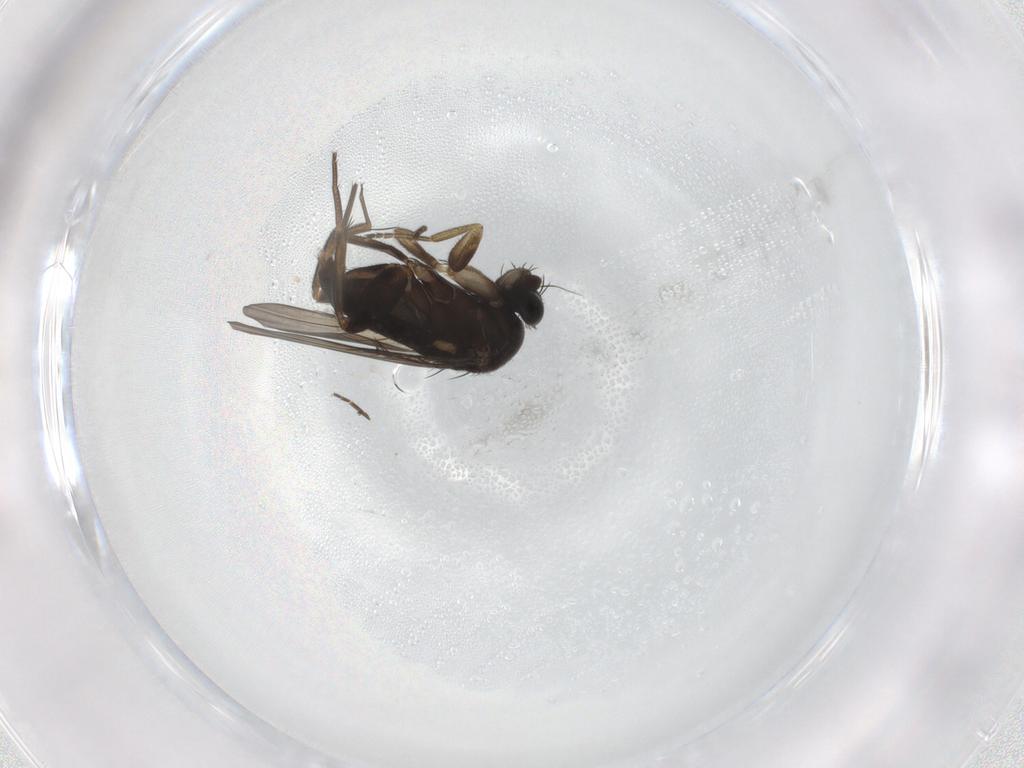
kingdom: Animalia
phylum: Arthropoda
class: Insecta
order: Diptera
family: Phoridae
